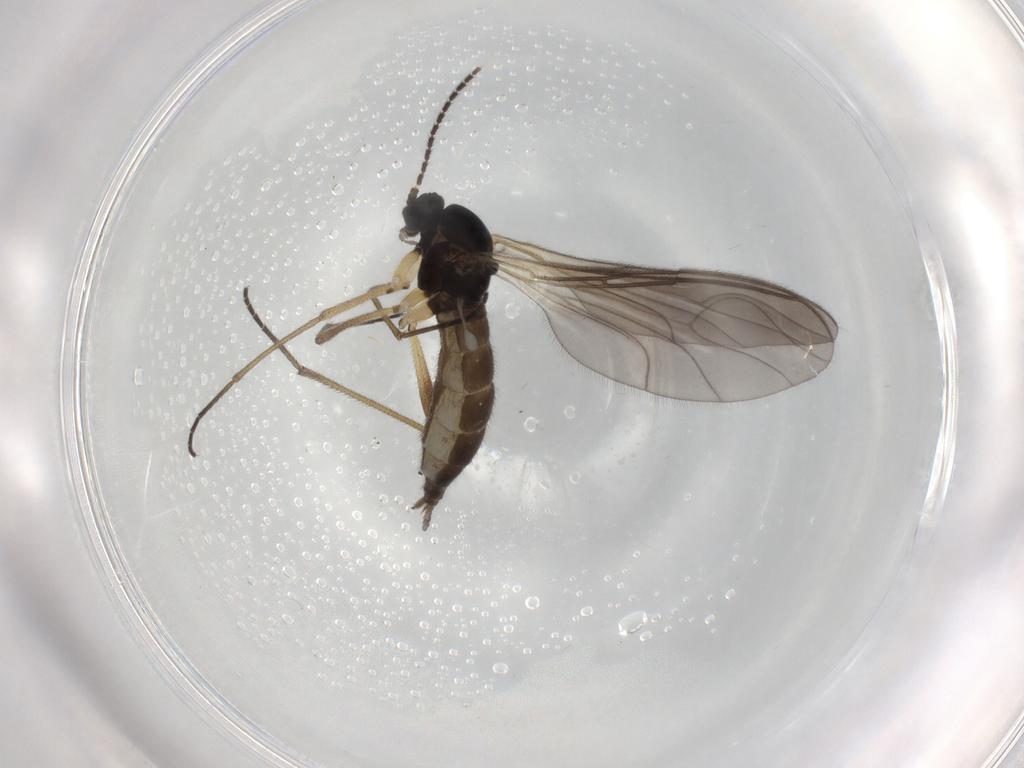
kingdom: Animalia
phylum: Arthropoda
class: Insecta
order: Diptera
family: Sciaridae
